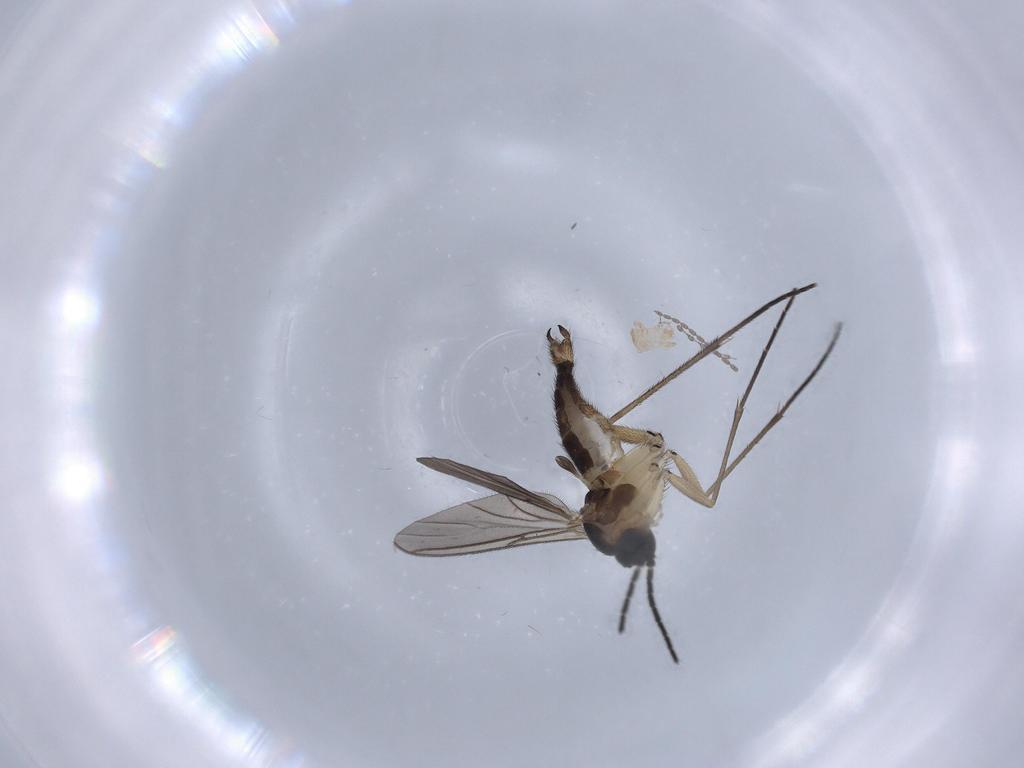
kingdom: Animalia
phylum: Arthropoda
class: Insecta
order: Diptera
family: Sciaridae
